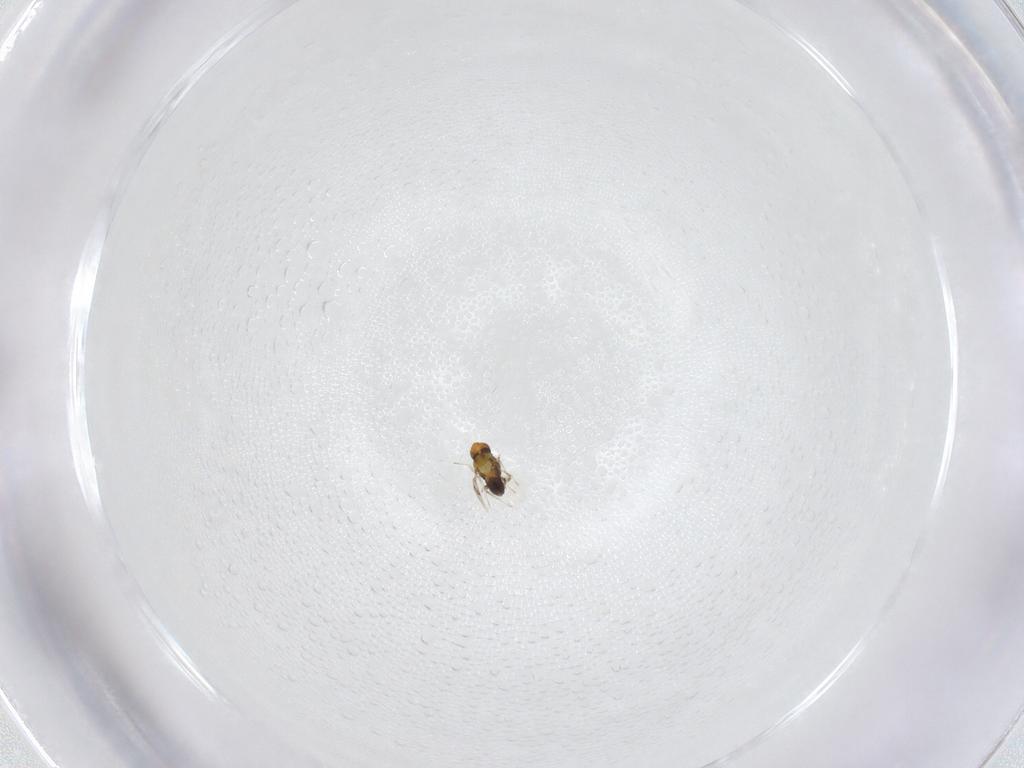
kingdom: Animalia
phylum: Arthropoda
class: Insecta
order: Hymenoptera
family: Trichogrammatidae
